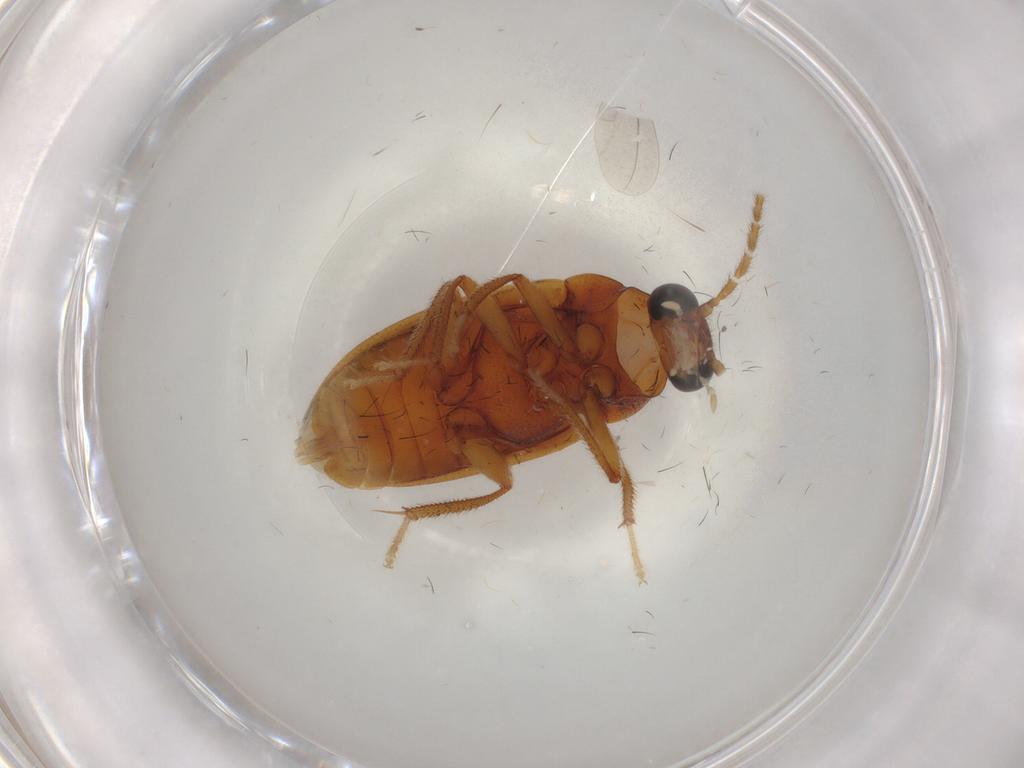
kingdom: Animalia
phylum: Arthropoda
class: Insecta
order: Coleoptera
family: Ptilodactylidae
